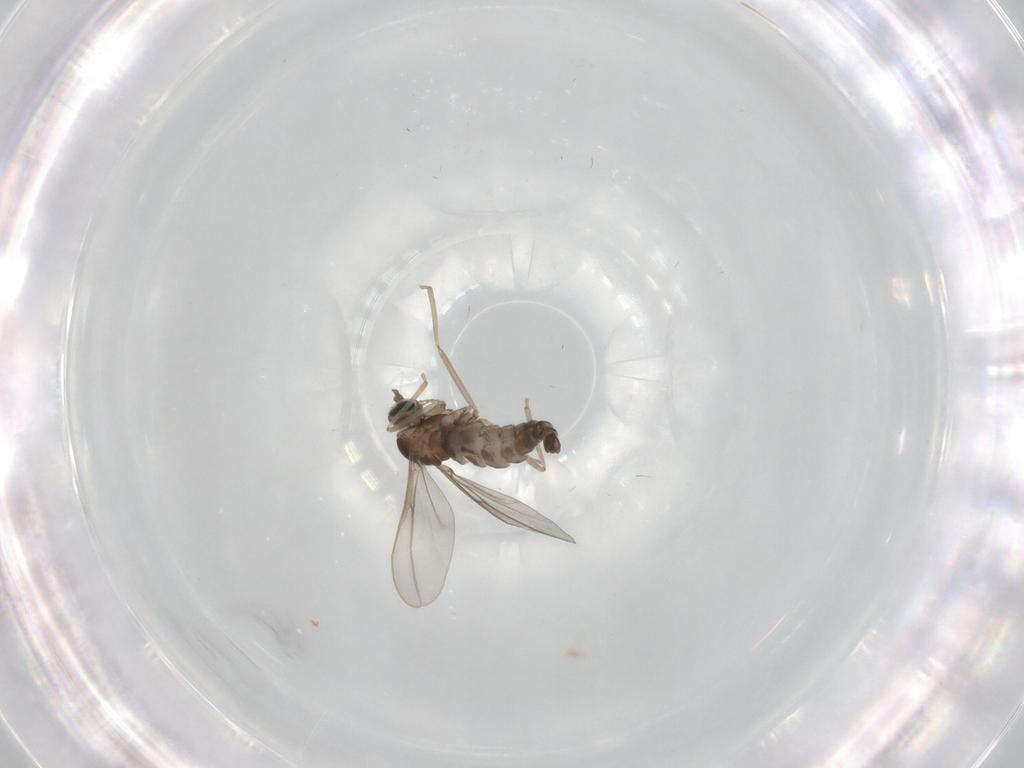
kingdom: Animalia
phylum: Arthropoda
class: Insecta
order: Diptera
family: Cecidomyiidae
